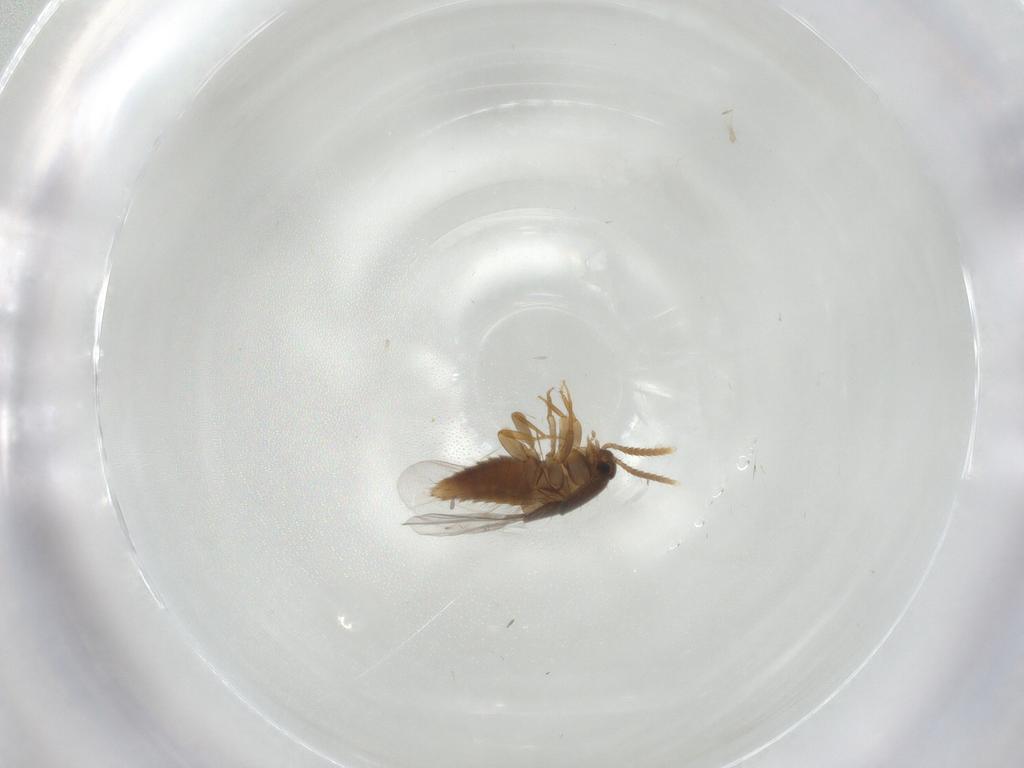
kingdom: Animalia
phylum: Arthropoda
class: Insecta
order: Coleoptera
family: Staphylinidae
